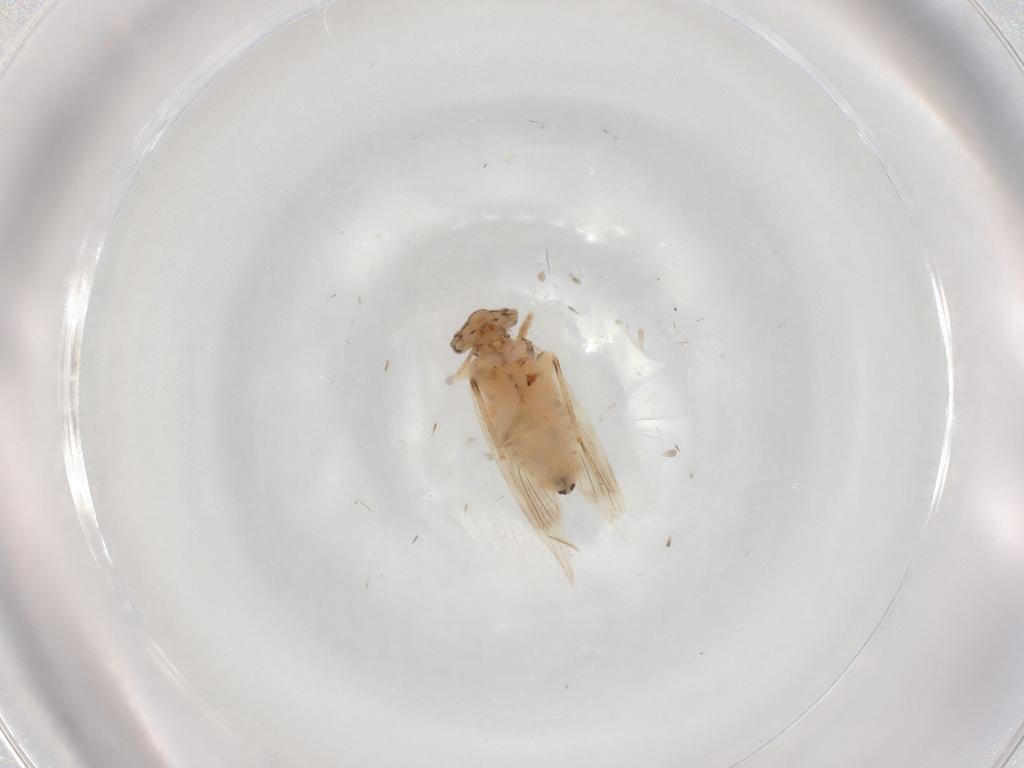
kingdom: Animalia
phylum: Arthropoda
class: Insecta
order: Psocodea
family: Lepidopsocidae
